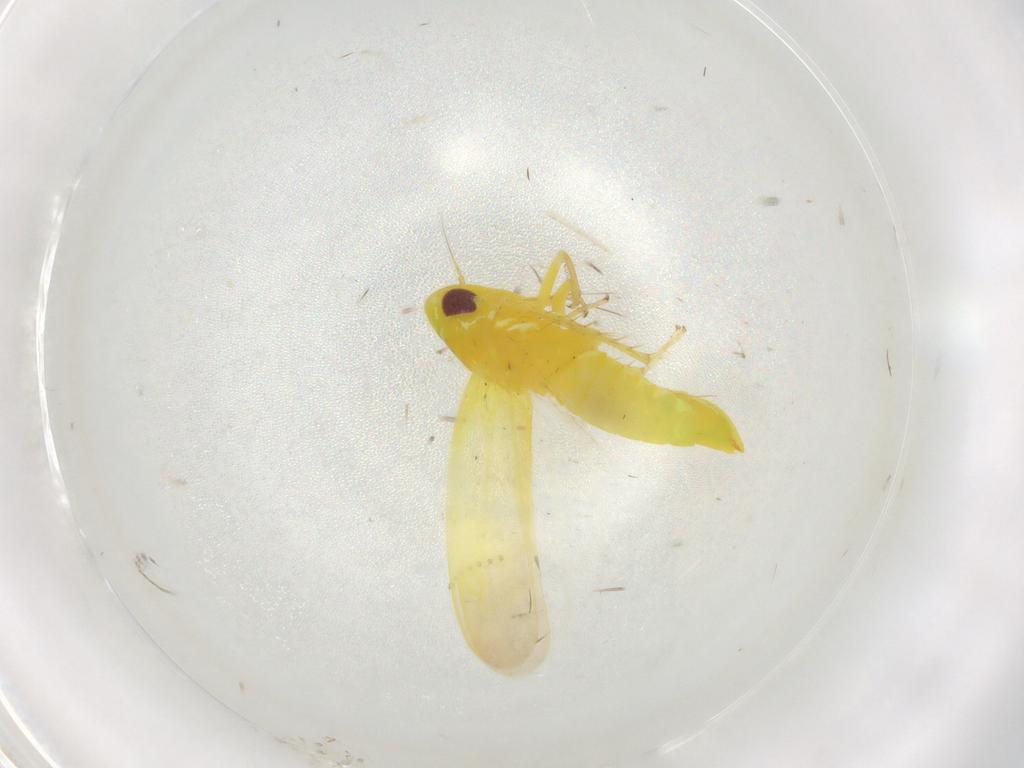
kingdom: Animalia
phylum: Arthropoda
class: Insecta
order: Hemiptera
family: Cicadellidae
